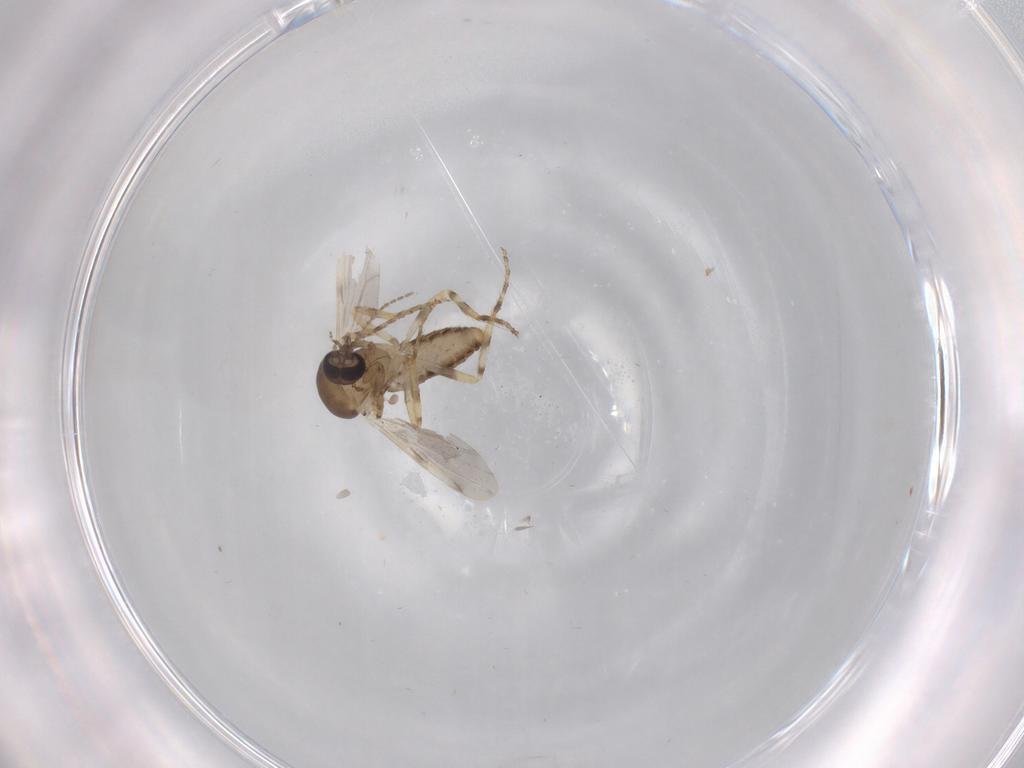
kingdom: Animalia
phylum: Arthropoda
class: Insecta
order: Diptera
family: Ceratopogonidae
